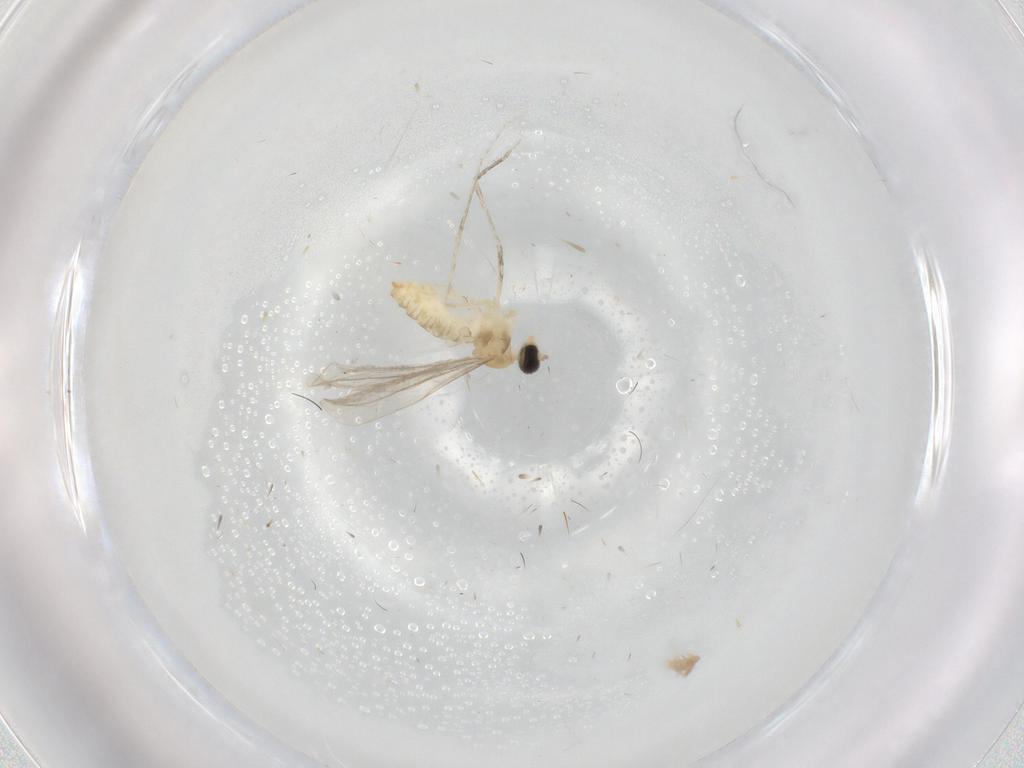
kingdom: Animalia
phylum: Arthropoda
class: Insecta
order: Diptera
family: Cecidomyiidae
